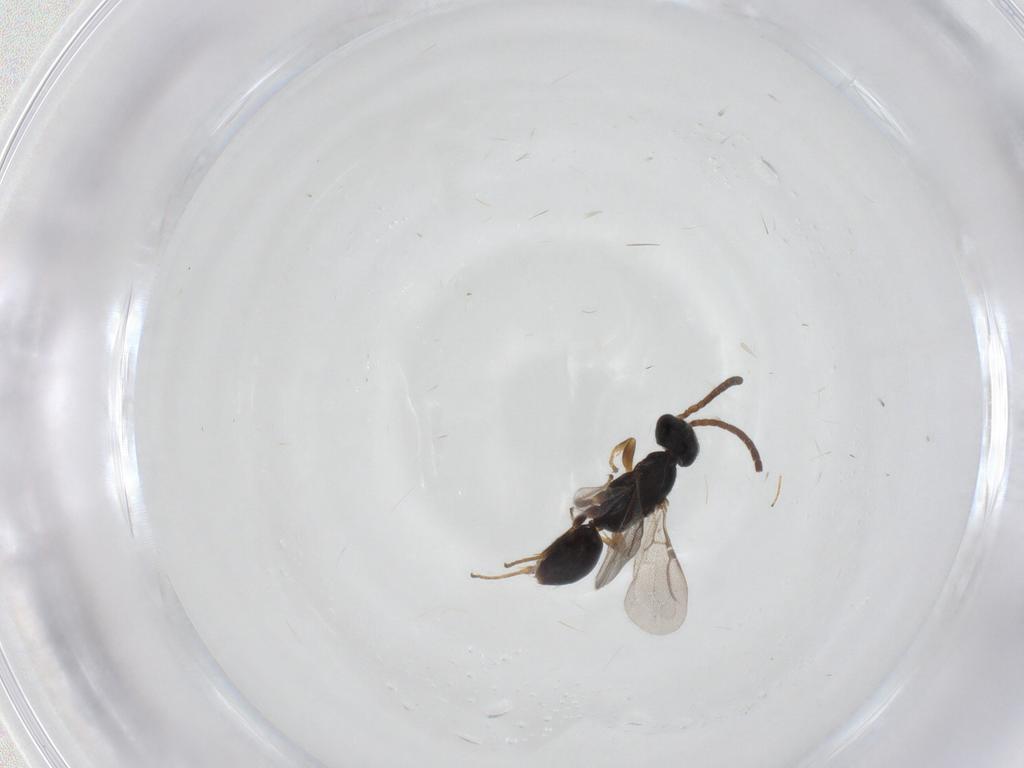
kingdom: Animalia
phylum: Arthropoda
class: Insecta
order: Hymenoptera
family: Bethylidae
